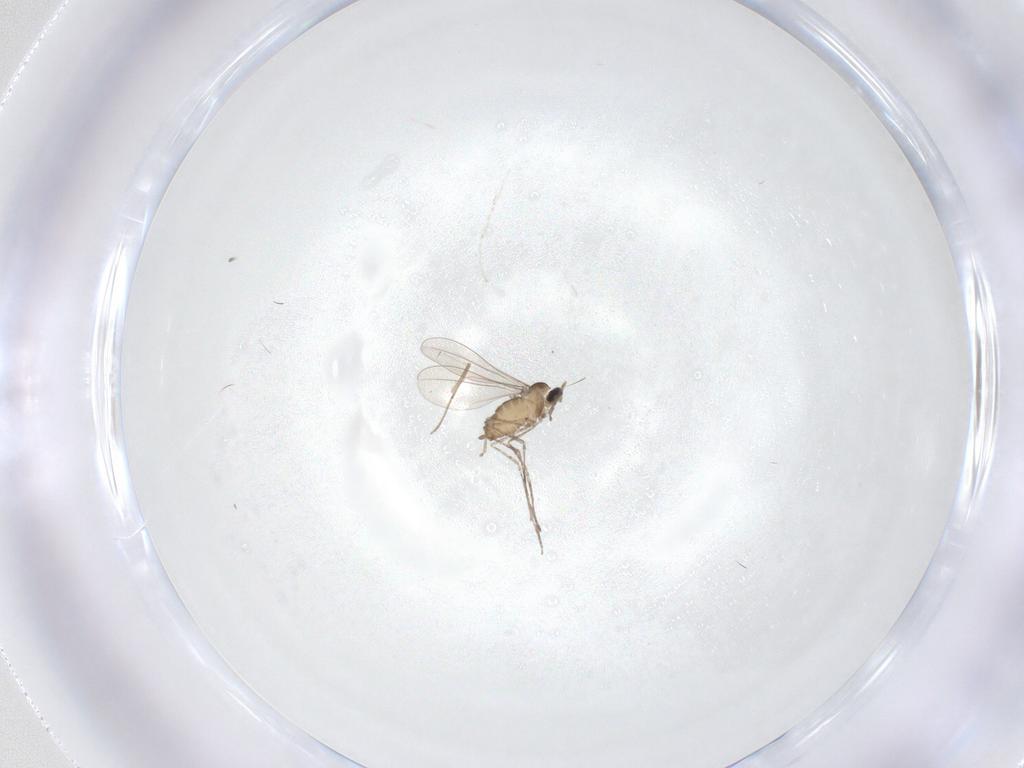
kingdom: Animalia
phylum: Arthropoda
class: Insecta
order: Diptera
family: Cecidomyiidae
